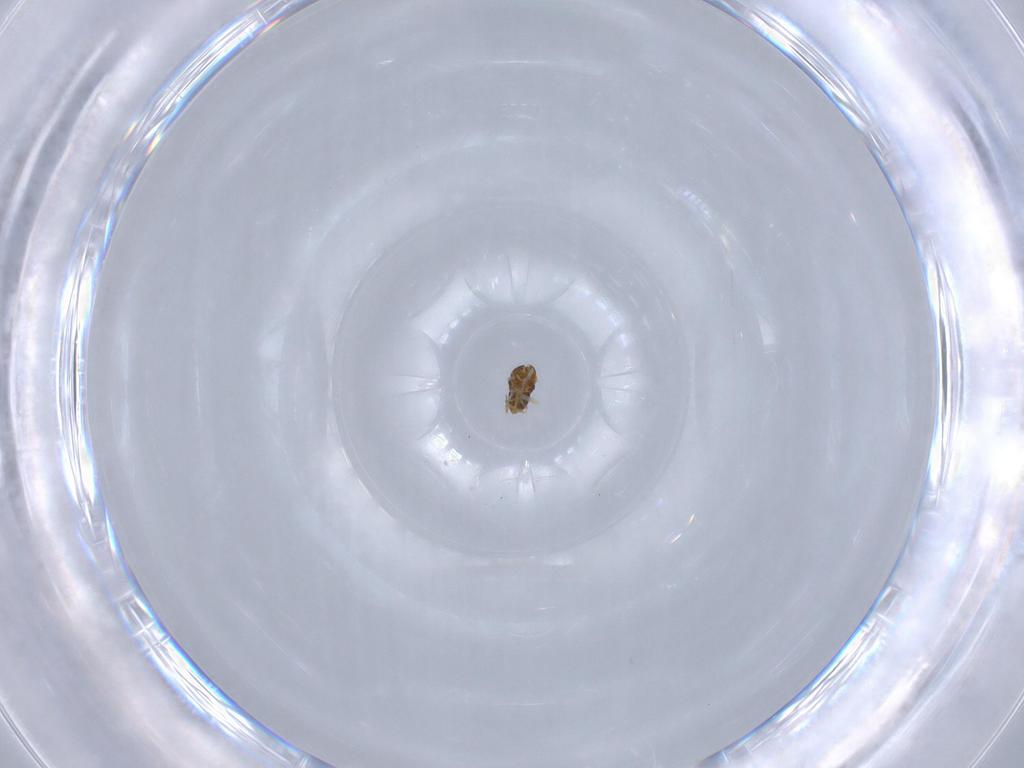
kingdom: Animalia
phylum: Arthropoda
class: Insecta
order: Hymenoptera
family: Aphelinidae
